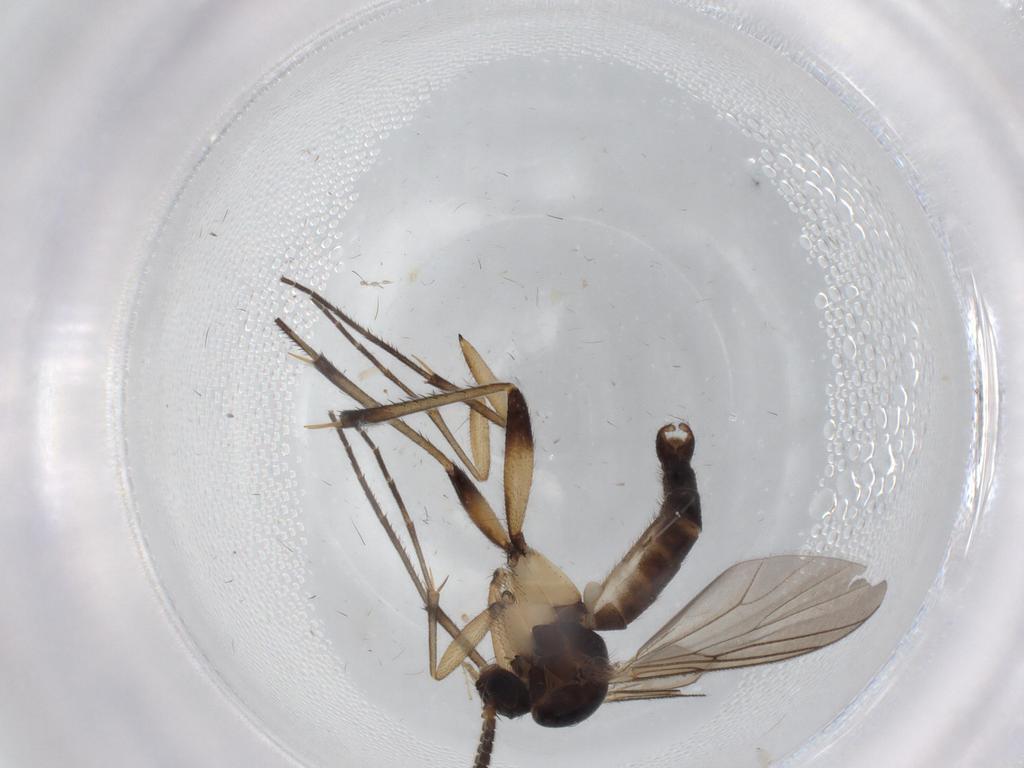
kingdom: Animalia
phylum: Arthropoda
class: Insecta
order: Diptera
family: Mycetophilidae
